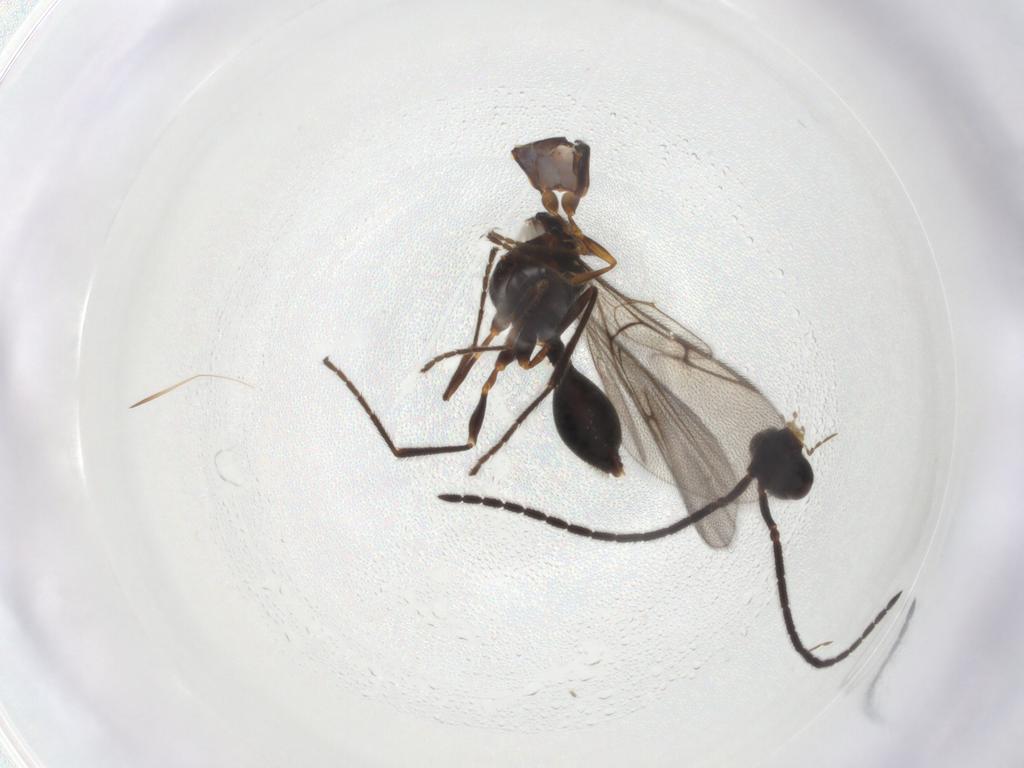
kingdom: Animalia
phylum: Arthropoda
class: Insecta
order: Hymenoptera
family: Diapriidae
